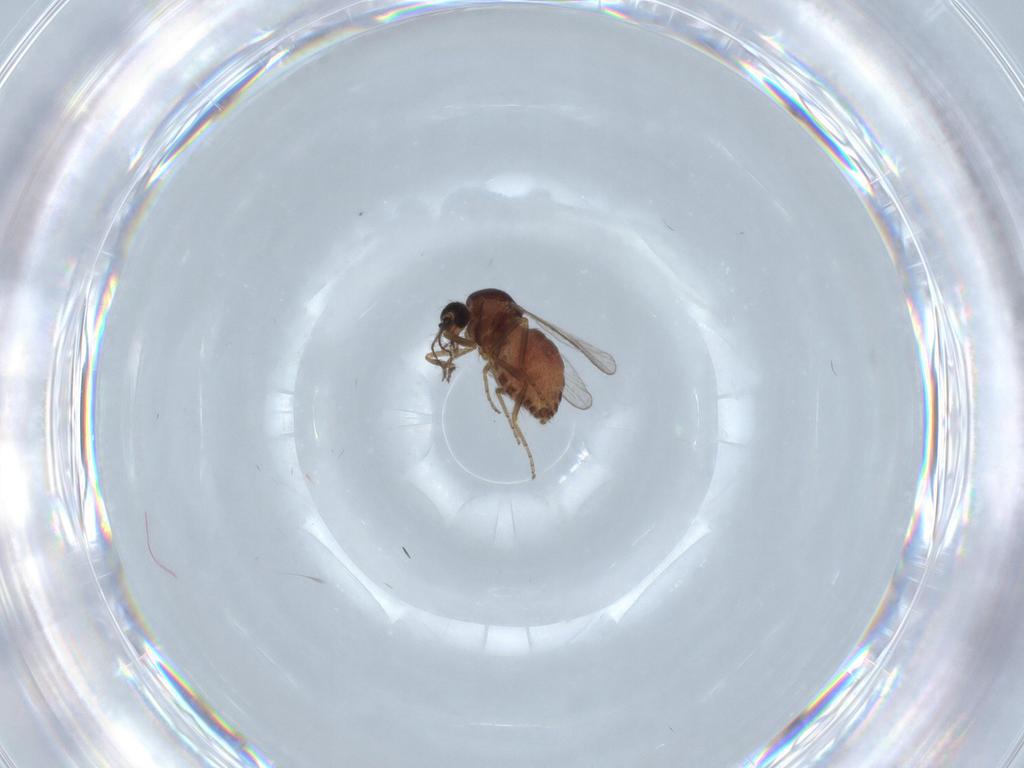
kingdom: Animalia
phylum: Arthropoda
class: Insecta
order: Diptera
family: Ceratopogonidae
